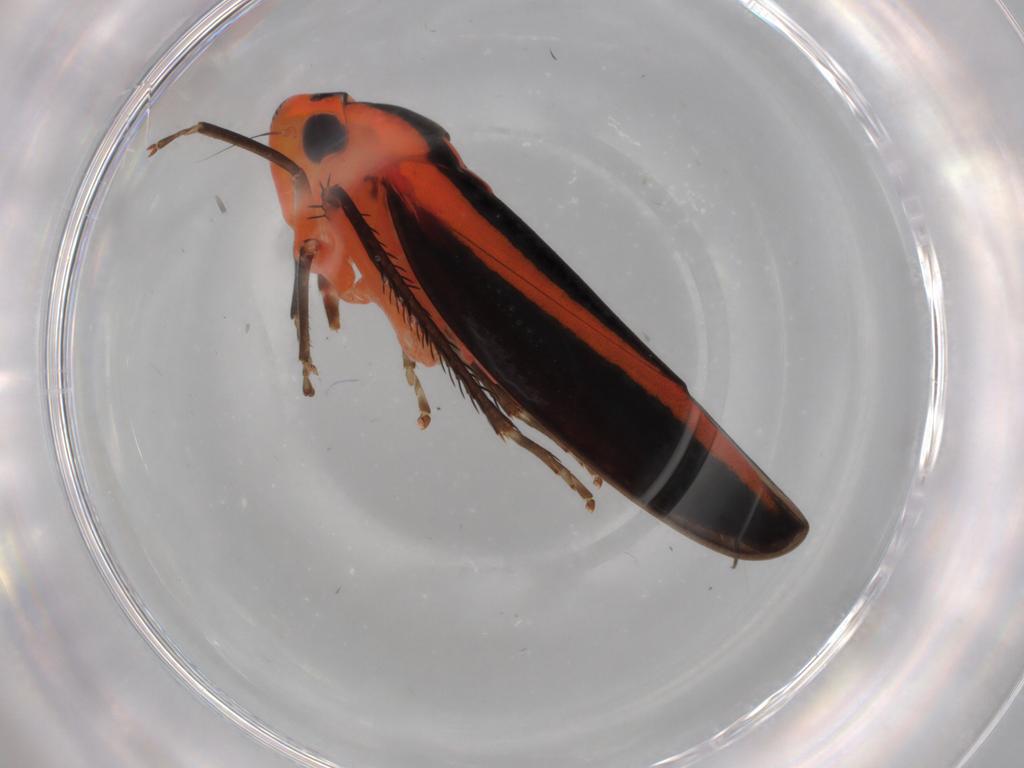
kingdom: Animalia
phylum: Arthropoda
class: Insecta
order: Hemiptera
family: Cicadellidae
